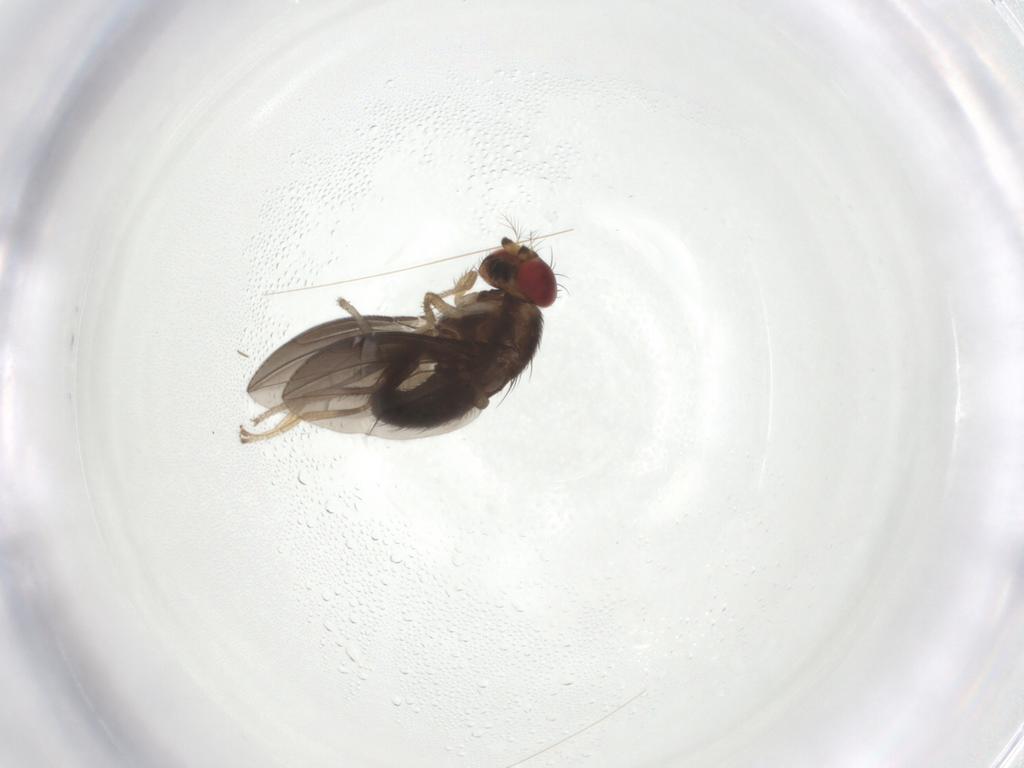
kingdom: Animalia
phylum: Arthropoda
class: Insecta
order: Diptera
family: Drosophilidae
